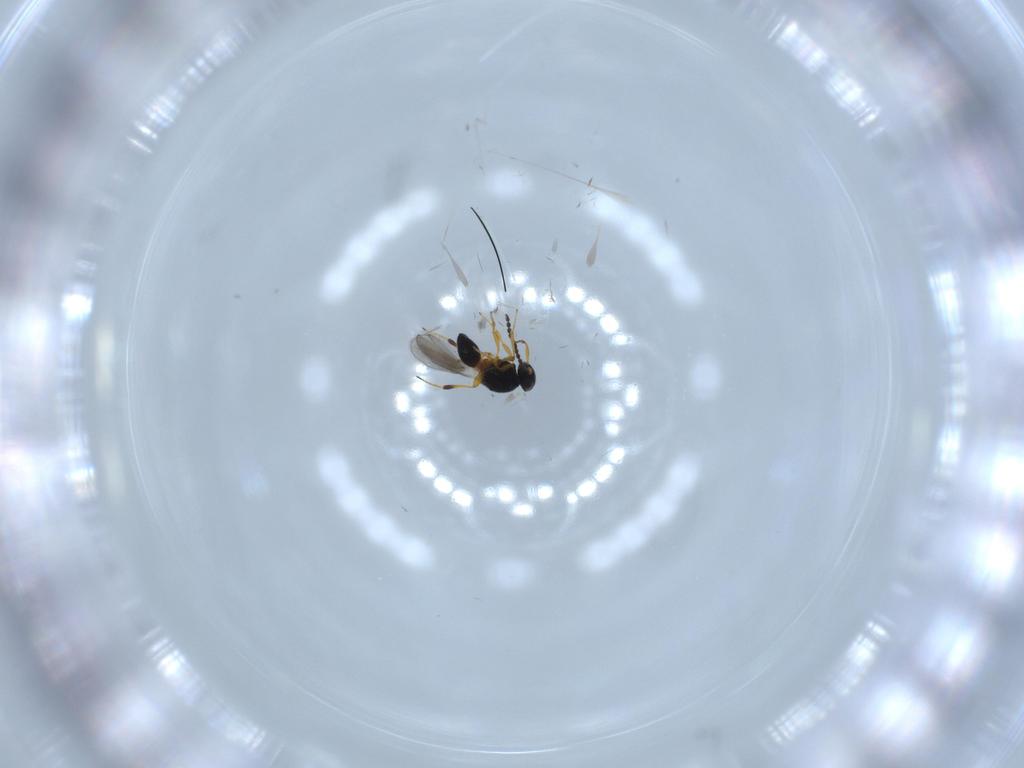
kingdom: Animalia
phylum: Arthropoda
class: Insecta
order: Hymenoptera
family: Platygastridae
